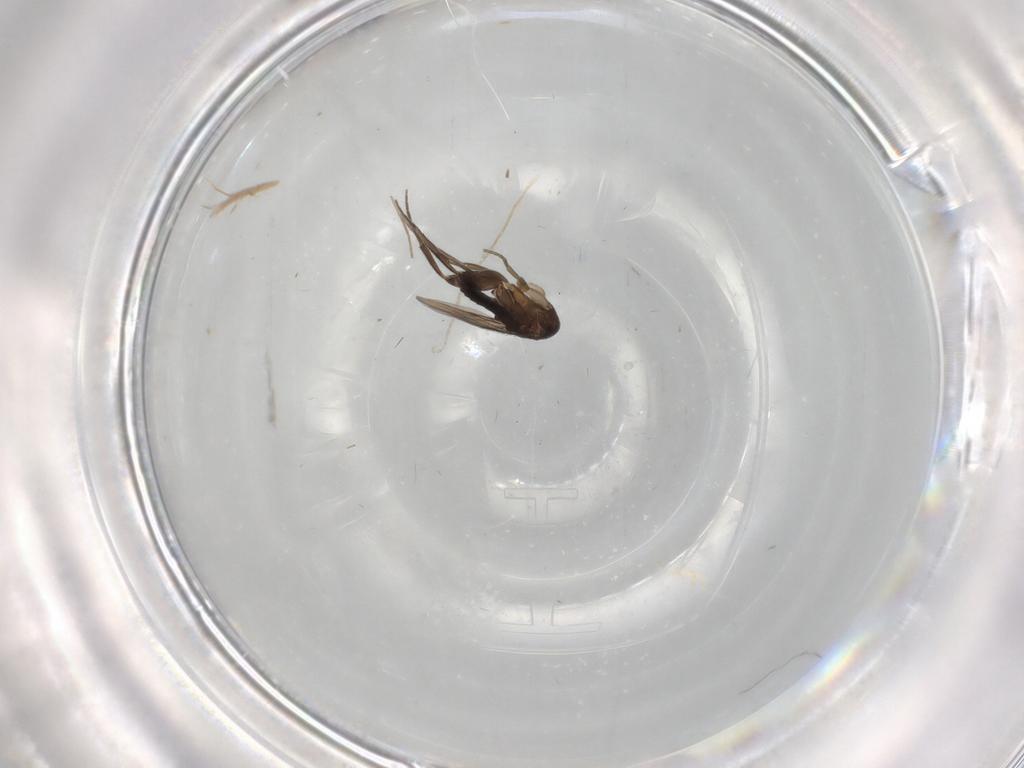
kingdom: Animalia
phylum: Arthropoda
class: Insecta
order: Diptera
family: Phoridae
